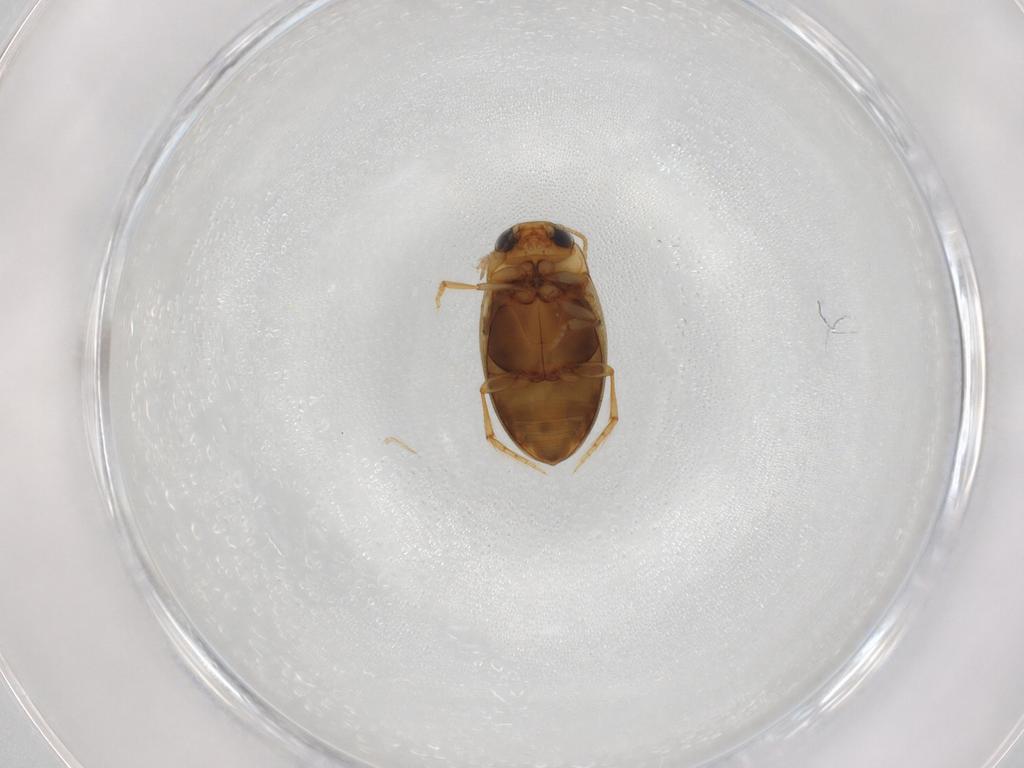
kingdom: Animalia
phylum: Arthropoda
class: Insecta
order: Coleoptera
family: Dytiscidae
